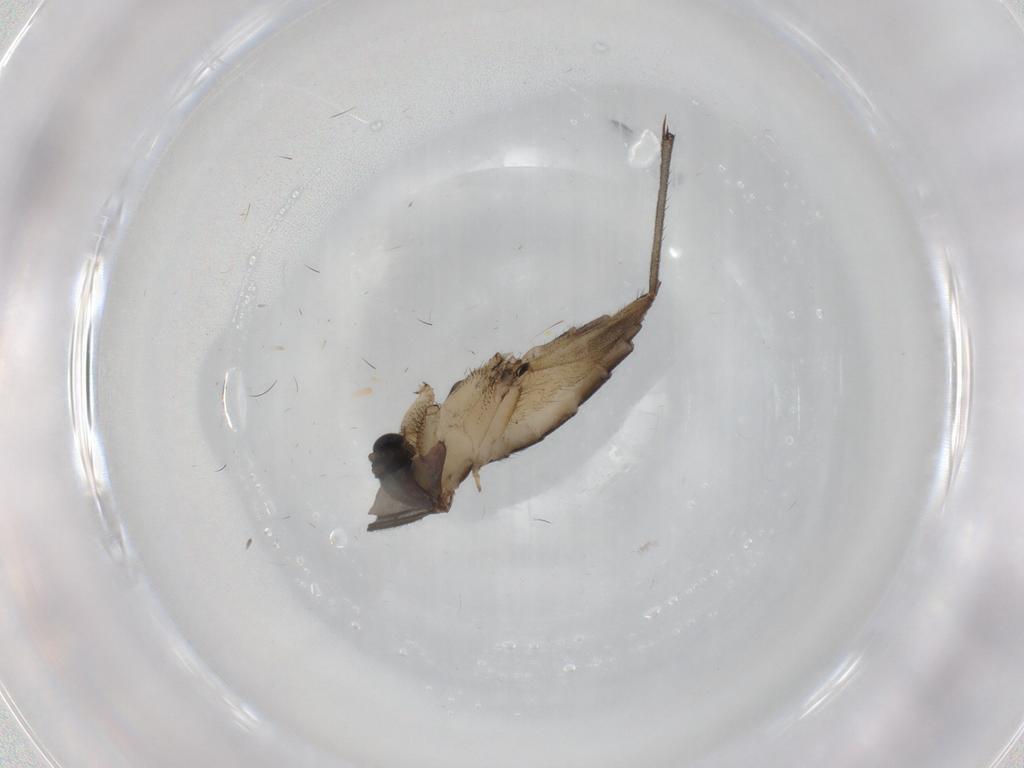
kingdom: Animalia
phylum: Arthropoda
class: Insecta
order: Diptera
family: Sciaridae
